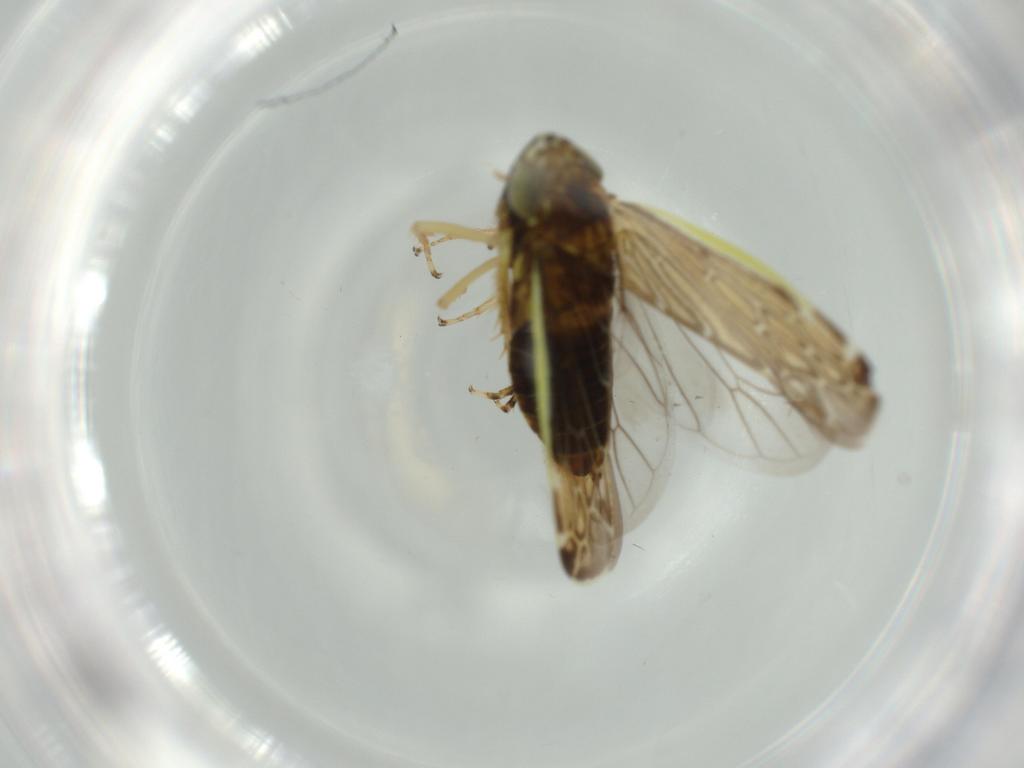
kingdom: Animalia
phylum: Arthropoda
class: Insecta
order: Hemiptera
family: Cicadellidae
